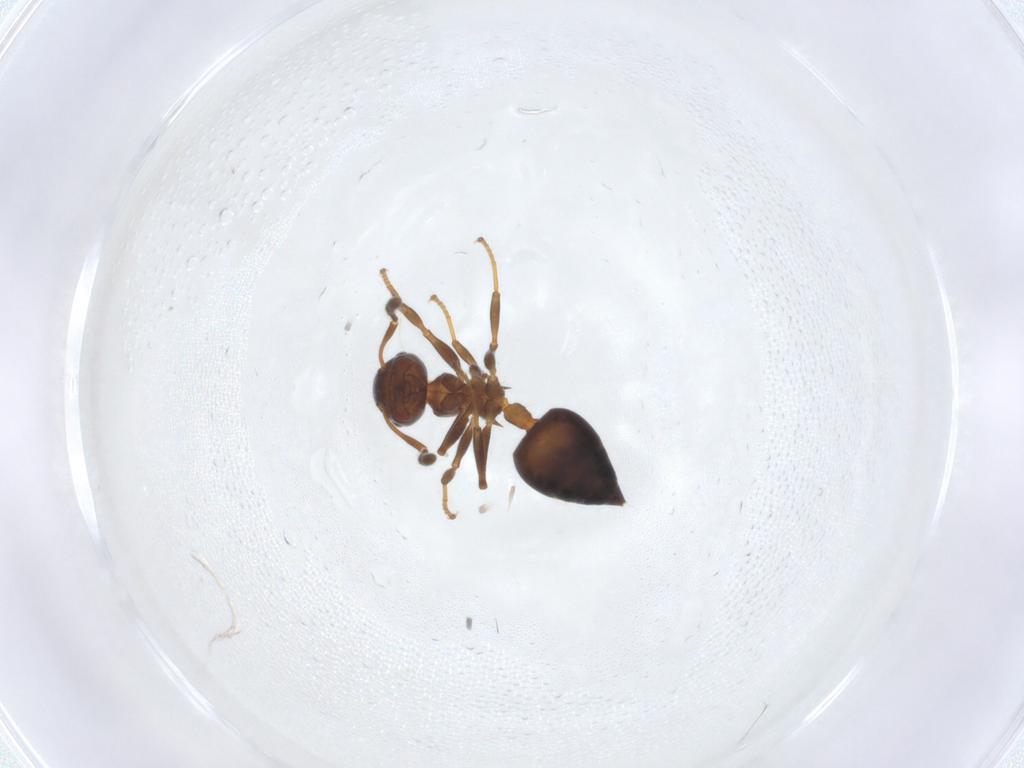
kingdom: Animalia
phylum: Arthropoda
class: Insecta
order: Hymenoptera
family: Formicidae
